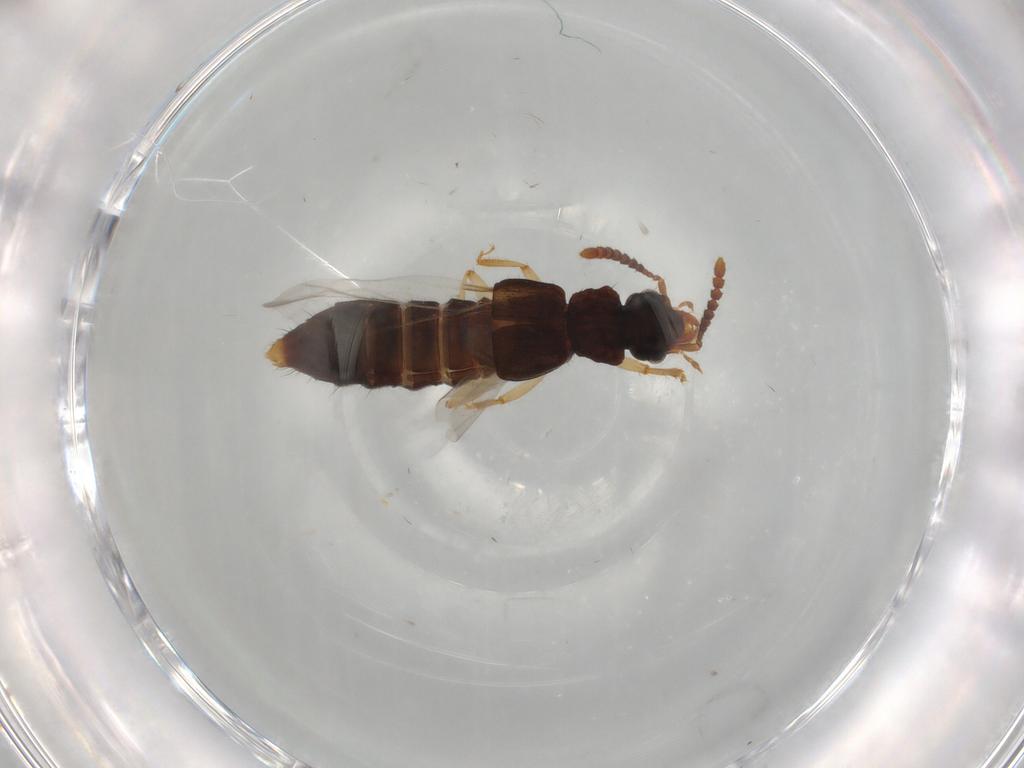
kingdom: Animalia
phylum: Arthropoda
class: Insecta
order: Coleoptera
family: Staphylinidae
